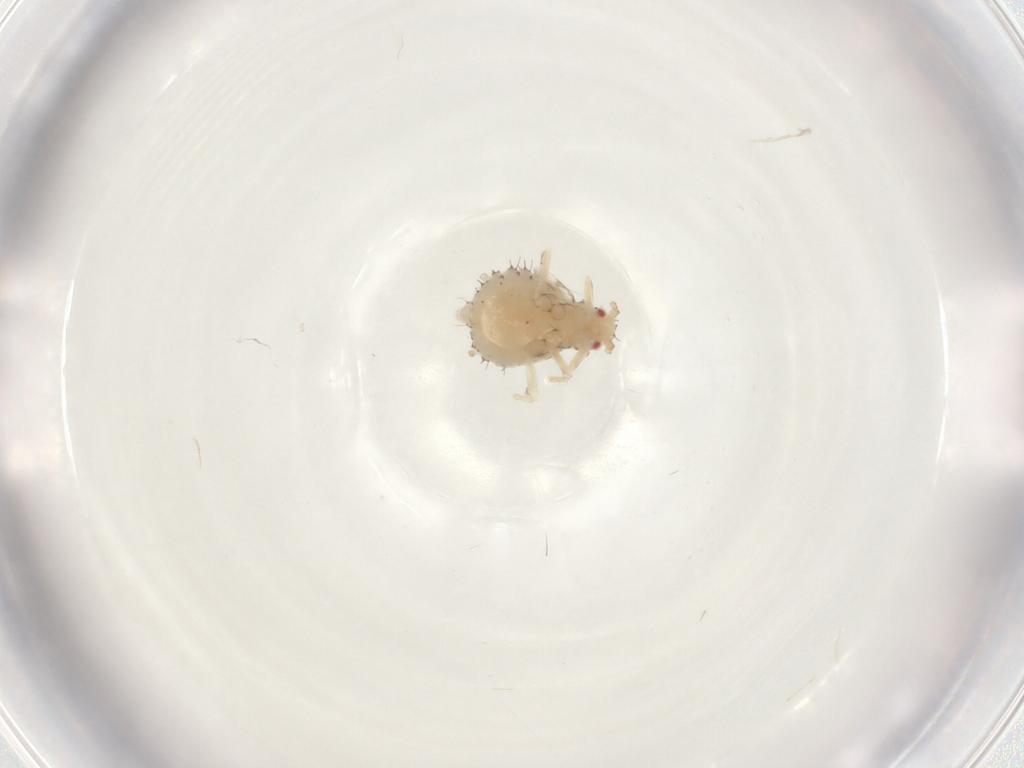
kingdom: Animalia
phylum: Arthropoda
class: Insecta
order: Hemiptera
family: Aphididae
